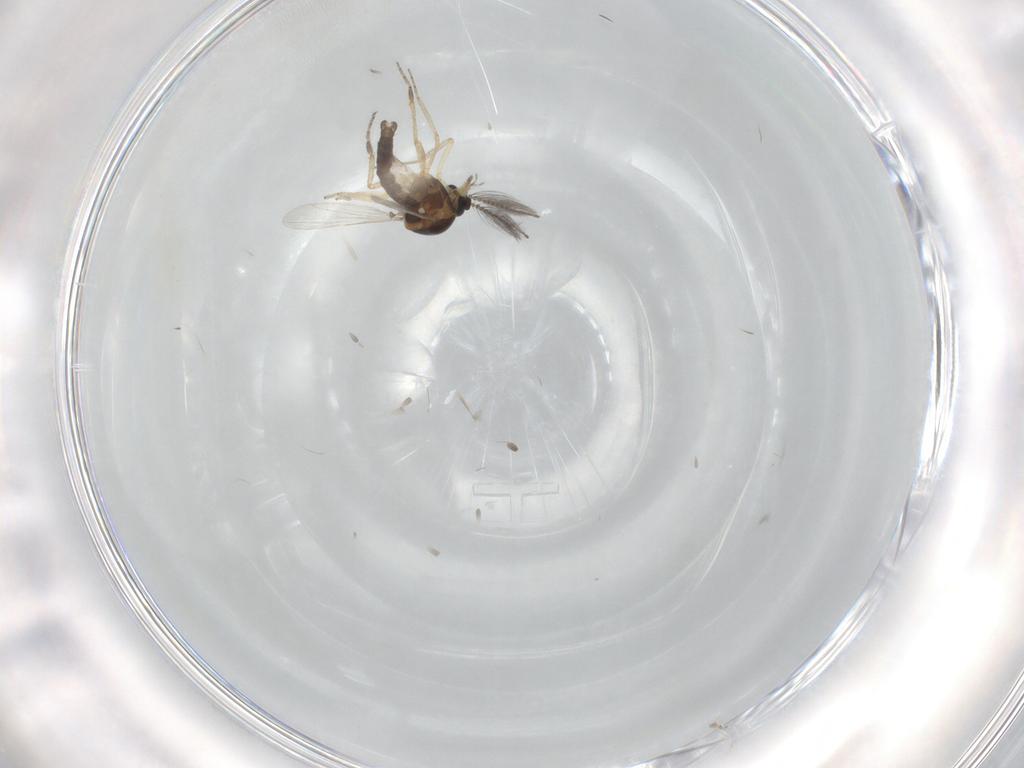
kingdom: Animalia
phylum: Arthropoda
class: Insecta
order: Diptera
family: Ceratopogonidae
